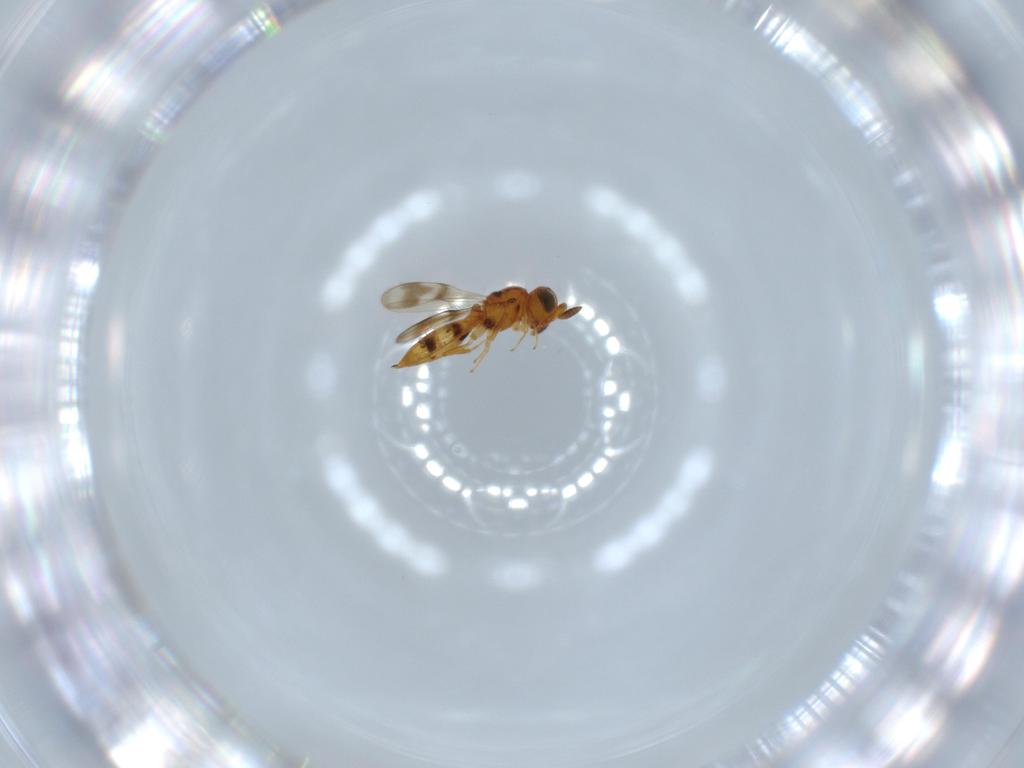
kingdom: Animalia
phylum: Arthropoda
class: Insecta
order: Hymenoptera
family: Scelionidae
